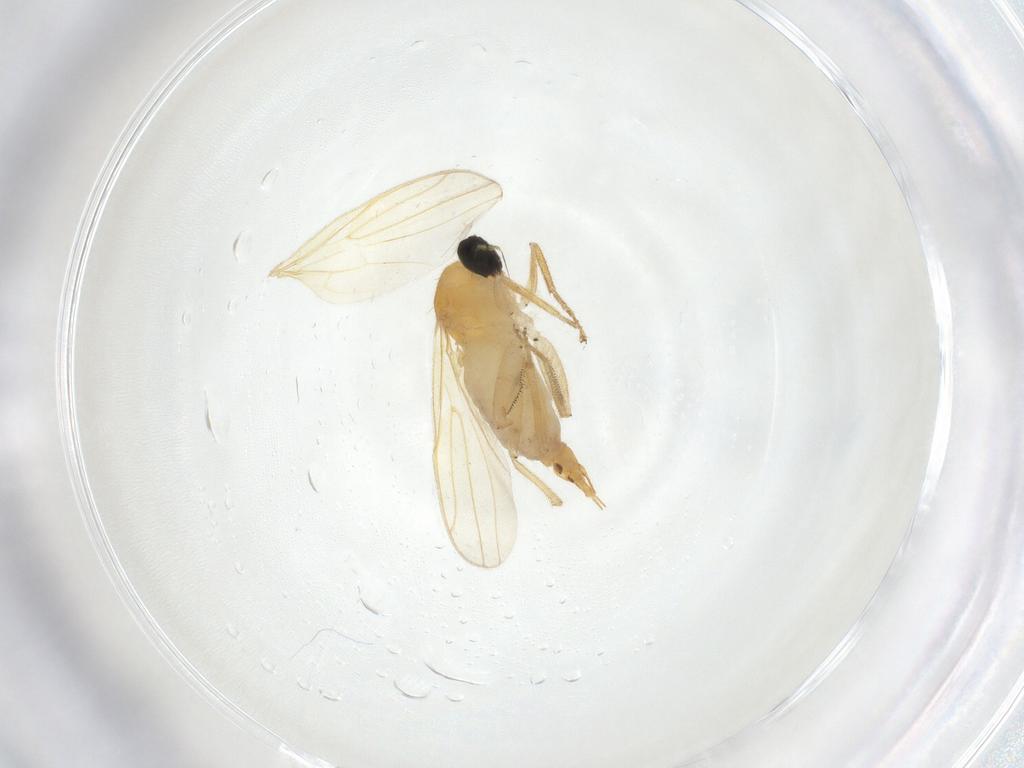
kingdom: Animalia
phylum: Arthropoda
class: Insecta
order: Diptera
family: Hybotidae
